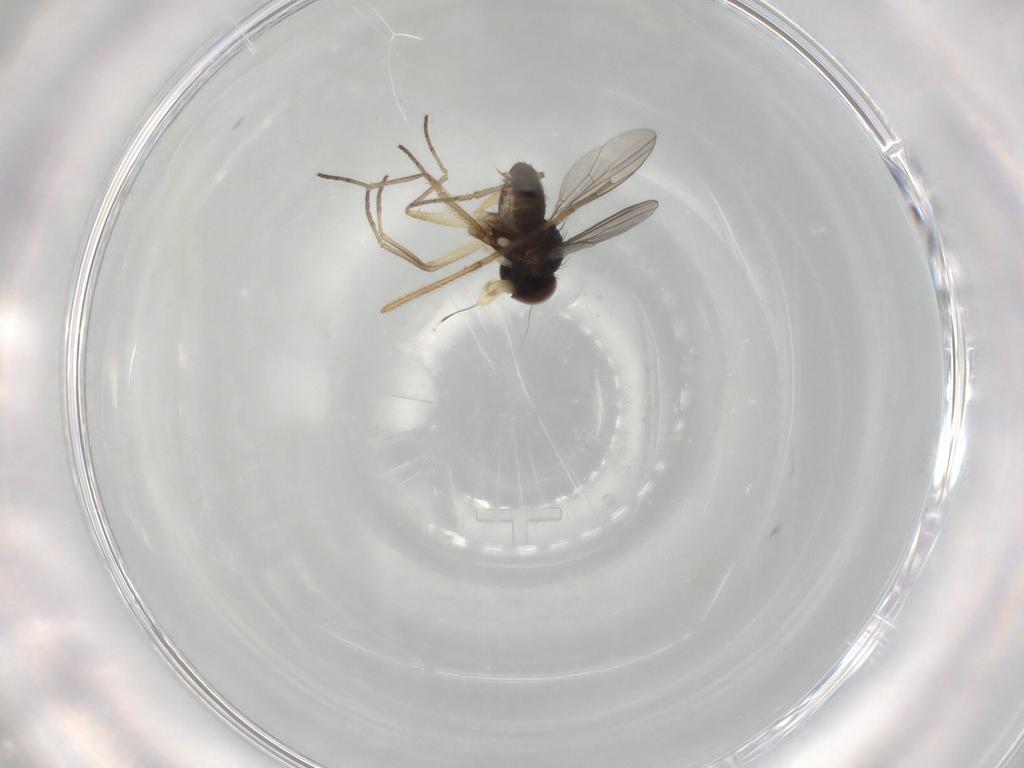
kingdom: Animalia
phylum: Arthropoda
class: Insecta
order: Diptera
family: Dolichopodidae
